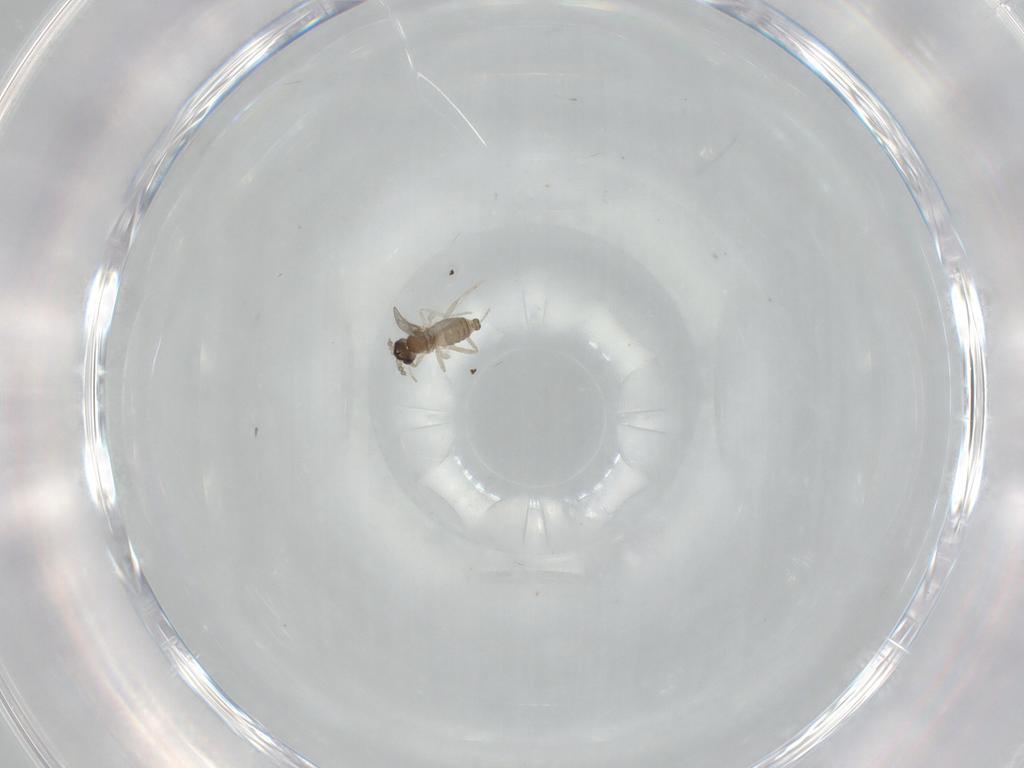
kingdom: Animalia
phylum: Arthropoda
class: Insecta
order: Diptera
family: Cecidomyiidae
